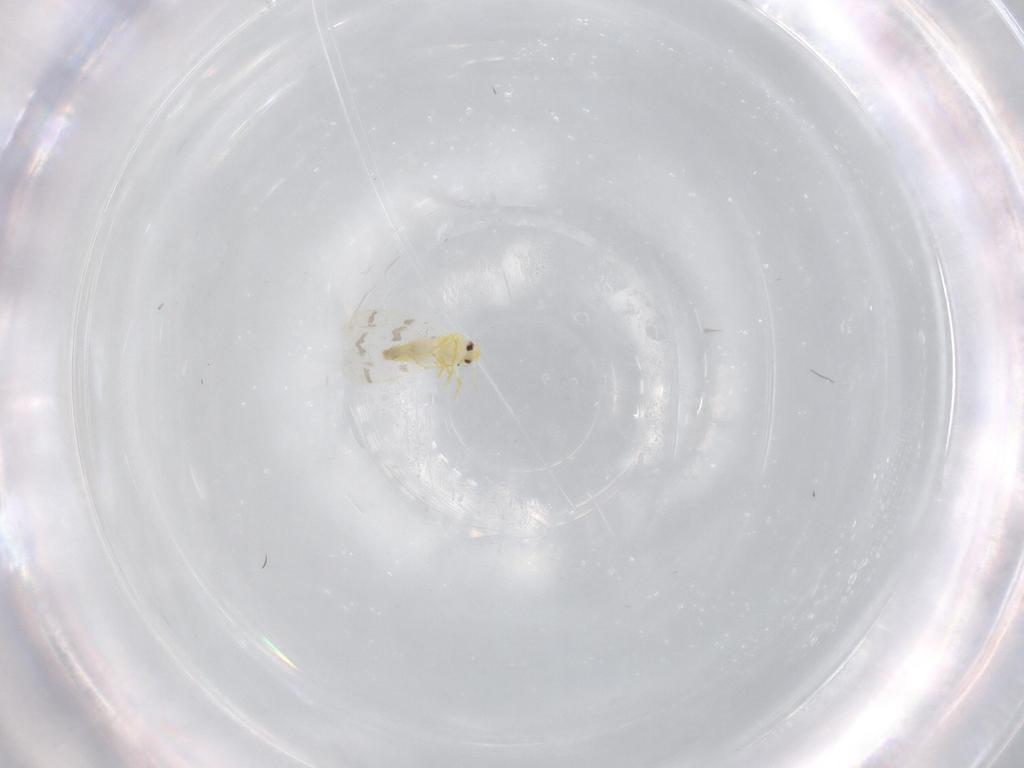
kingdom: Animalia
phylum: Arthropoda
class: Insecta
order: Hemiptera
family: Aleyrodidae
